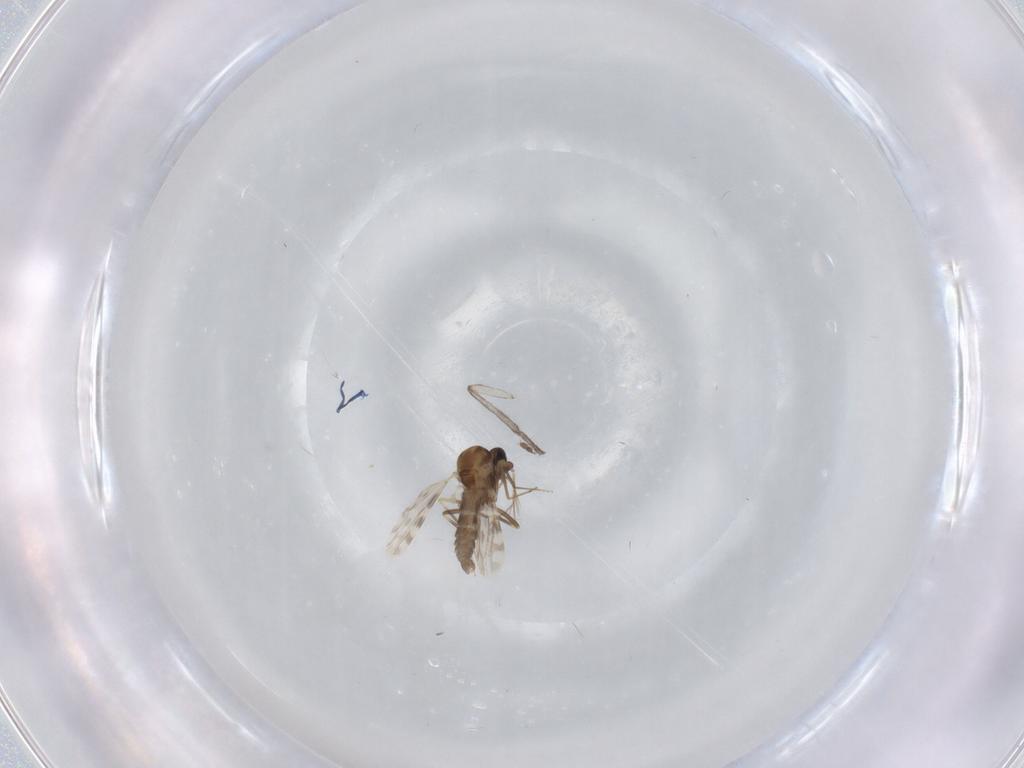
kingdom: Animalia
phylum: Arthropoda
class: Insecta
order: Diptera
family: Ceratopogonidae
